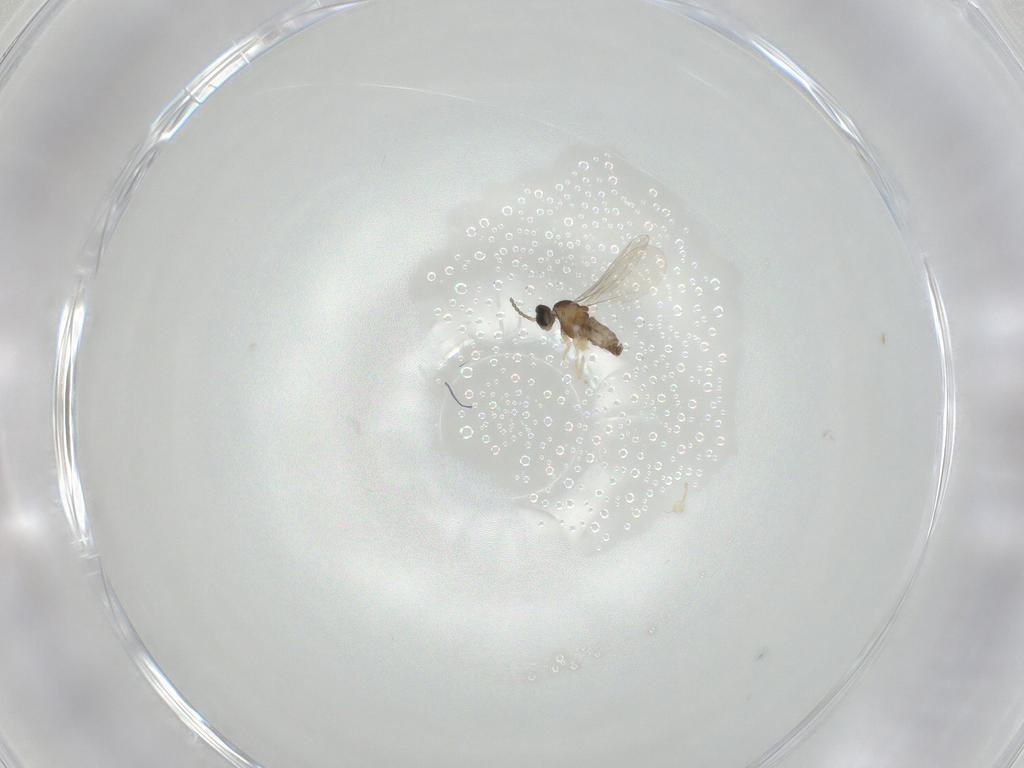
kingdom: Animalia
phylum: Arthropoda
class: Insecta
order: Diptera
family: Cecidomyiidae
